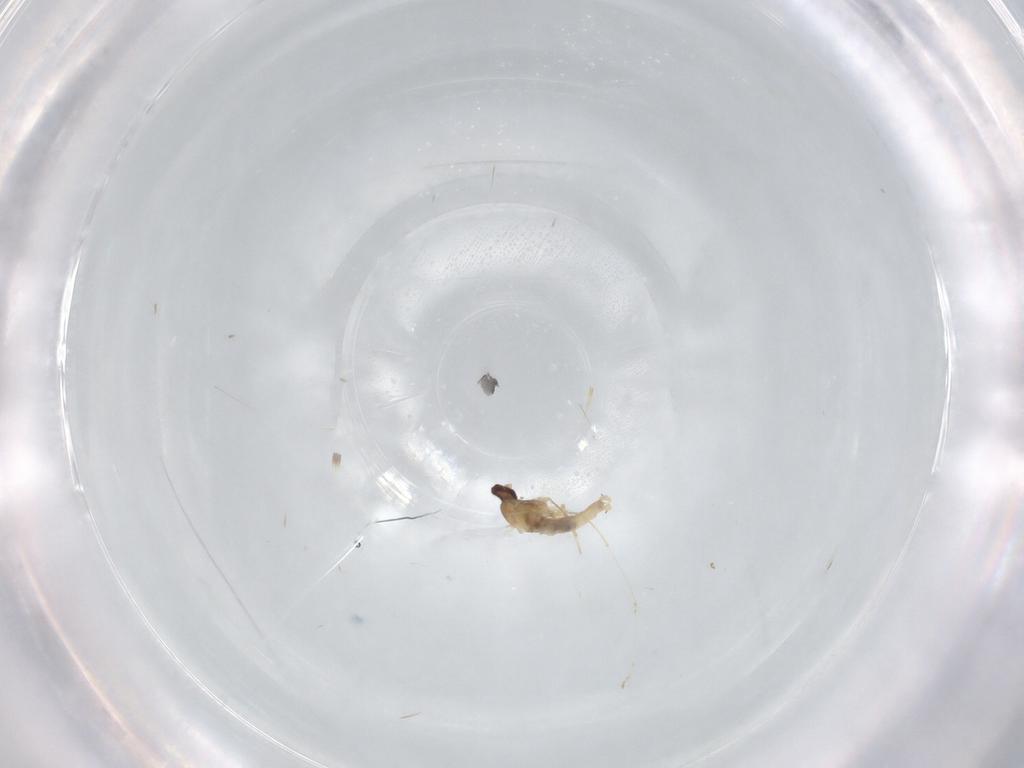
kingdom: Animalia
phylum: Arthropoda
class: Insecta
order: Diptera
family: Cecidomyiidae
